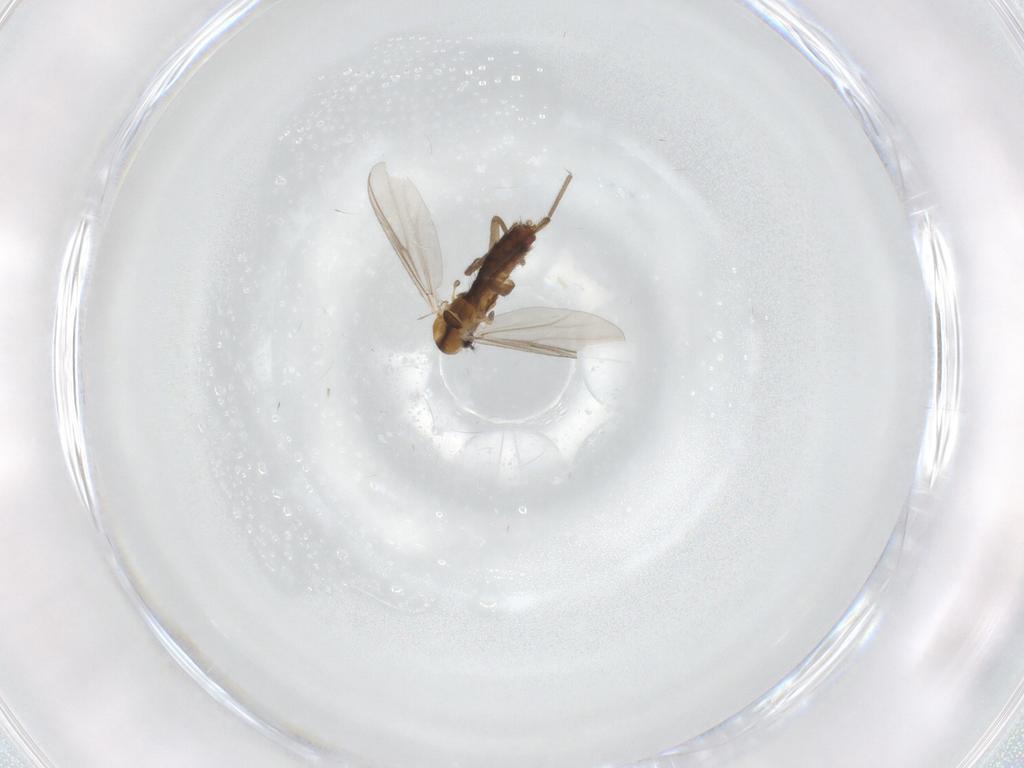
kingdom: Animalia
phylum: Arthropoda
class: Insecta
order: Diptera
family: Chironomidae
